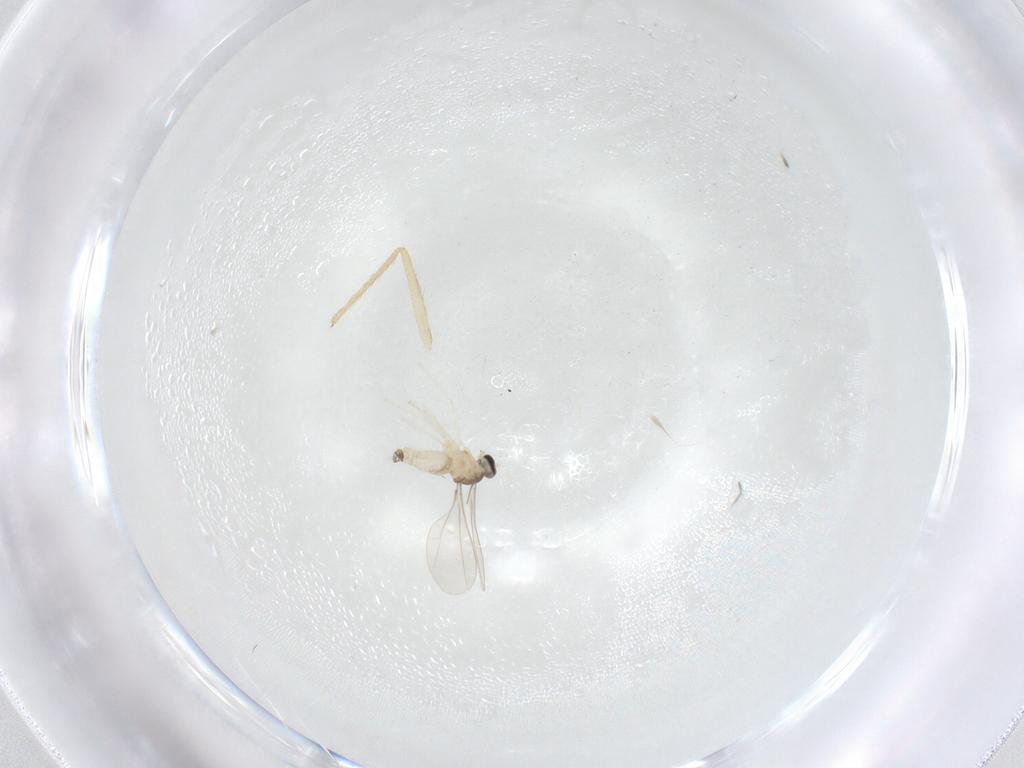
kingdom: Animalia
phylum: Arthropoda
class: Insecta
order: Diptera
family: Cecidomyiidae
